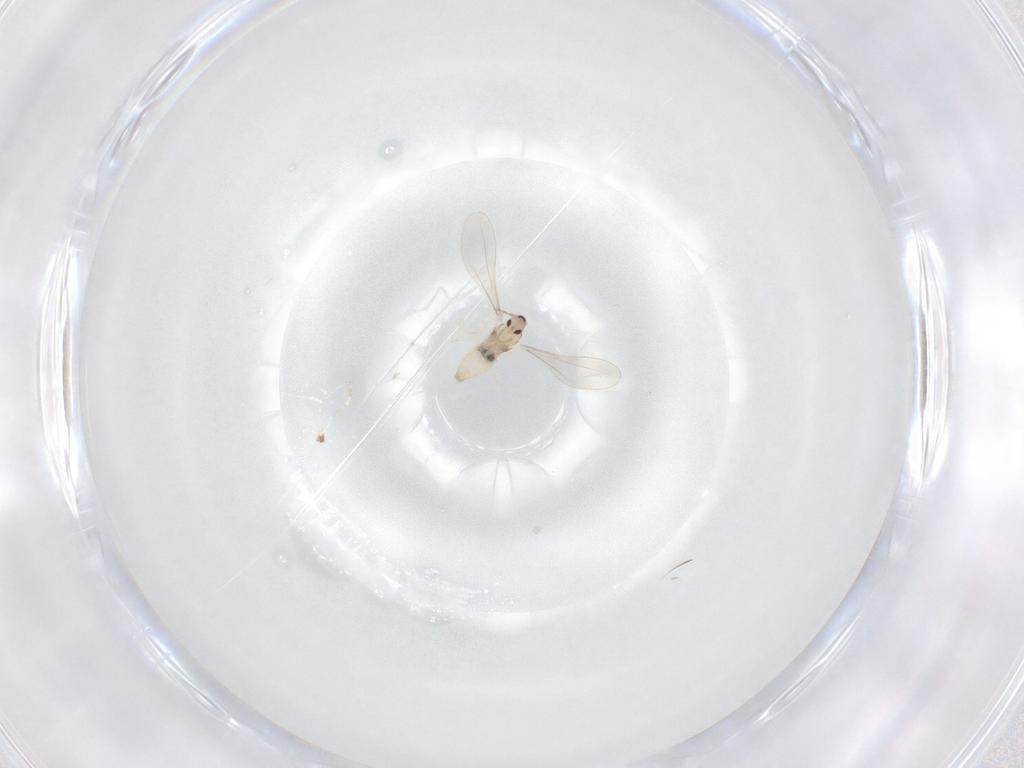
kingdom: Animalia
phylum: Arthropoda
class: Insecta
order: Diptera
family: Cecidomyiidae
